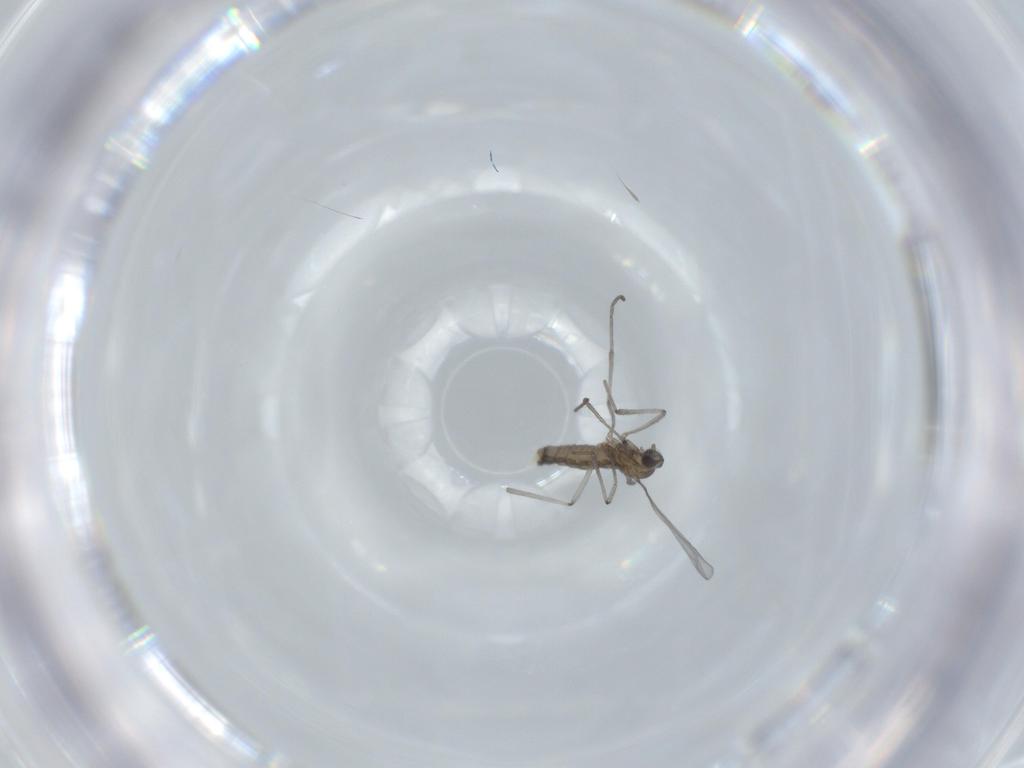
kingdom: Animalia
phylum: Arthropoda
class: Insecta
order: Diptera
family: Cecidomyiidae
